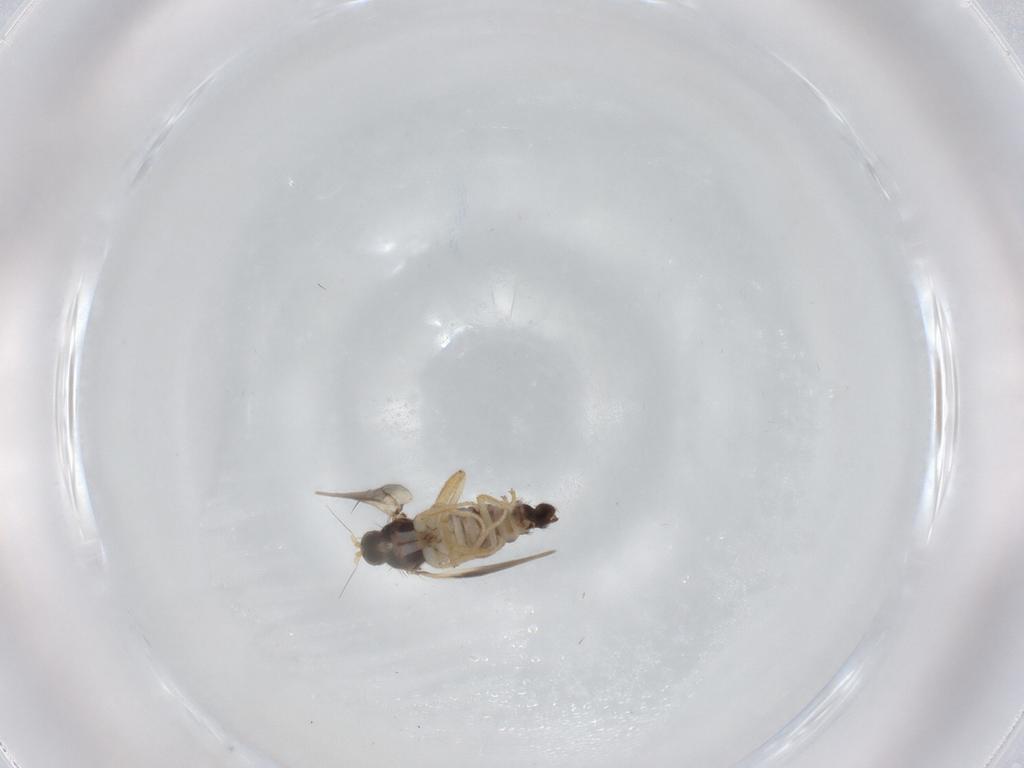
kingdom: Animalia
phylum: Arthropoda
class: Insecta
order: Diptera
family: Hybotidae
